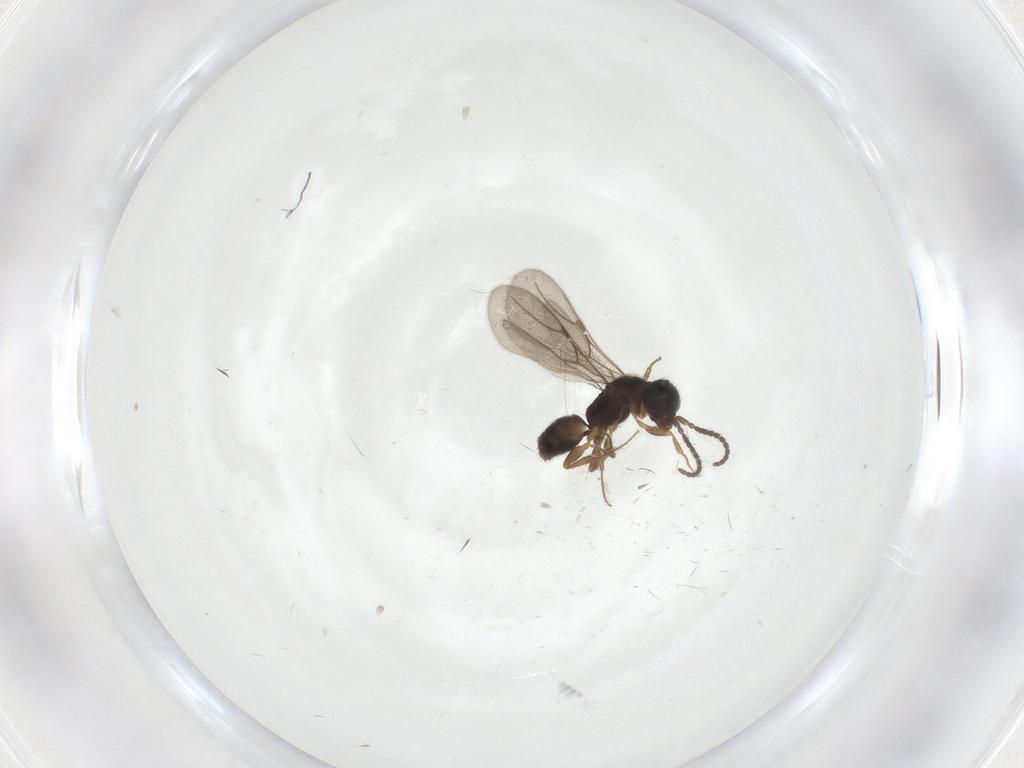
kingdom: Animalia
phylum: Arthropoda
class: Insecta
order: Hymenoptera
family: Bethylidae
